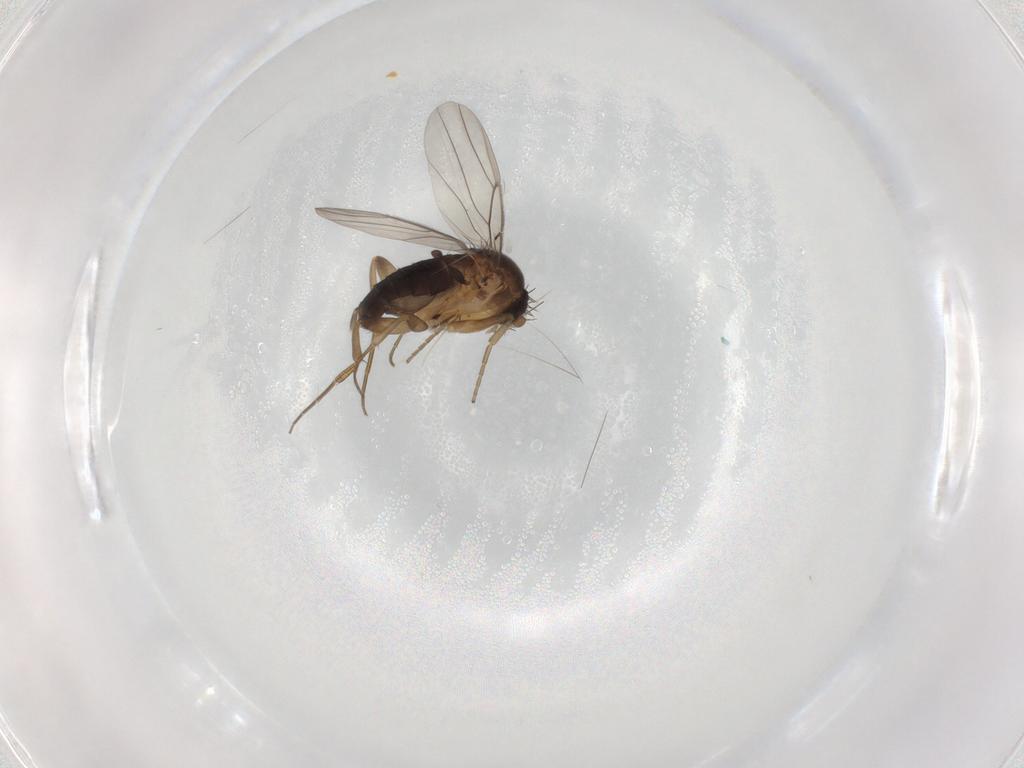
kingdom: Animalia
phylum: Arthropoda
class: Insecta
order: Diptera
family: Phoridae
